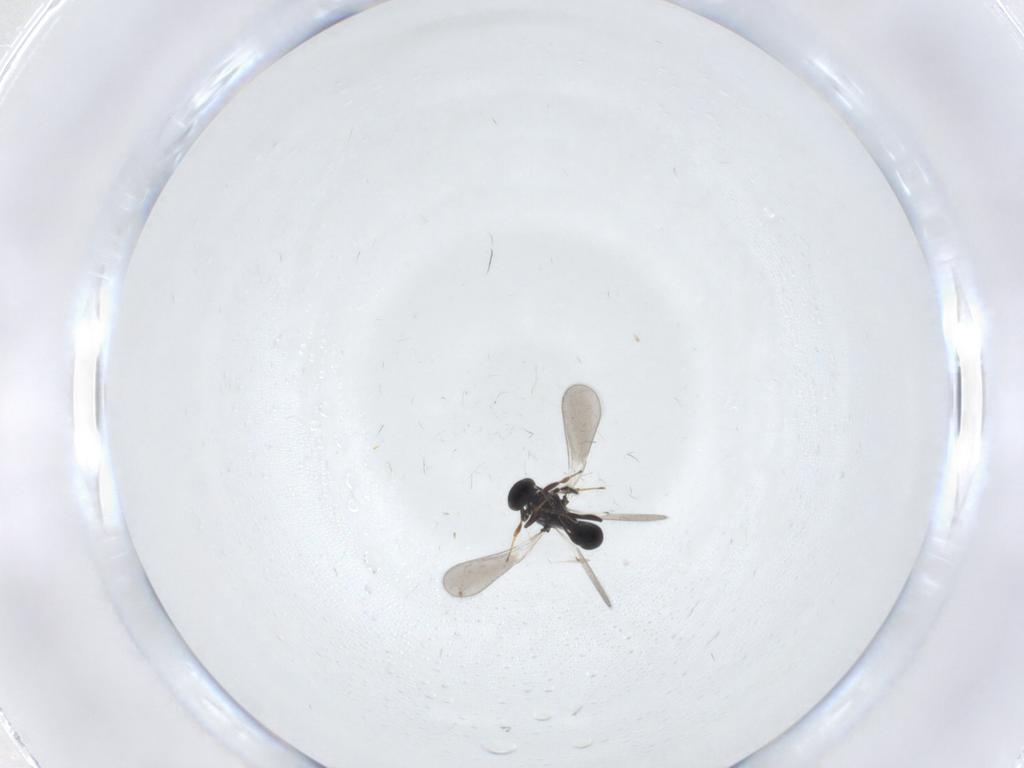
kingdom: Animalia
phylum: Arthropoda
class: Insecta
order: Hymenoptera
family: Platygastridae
